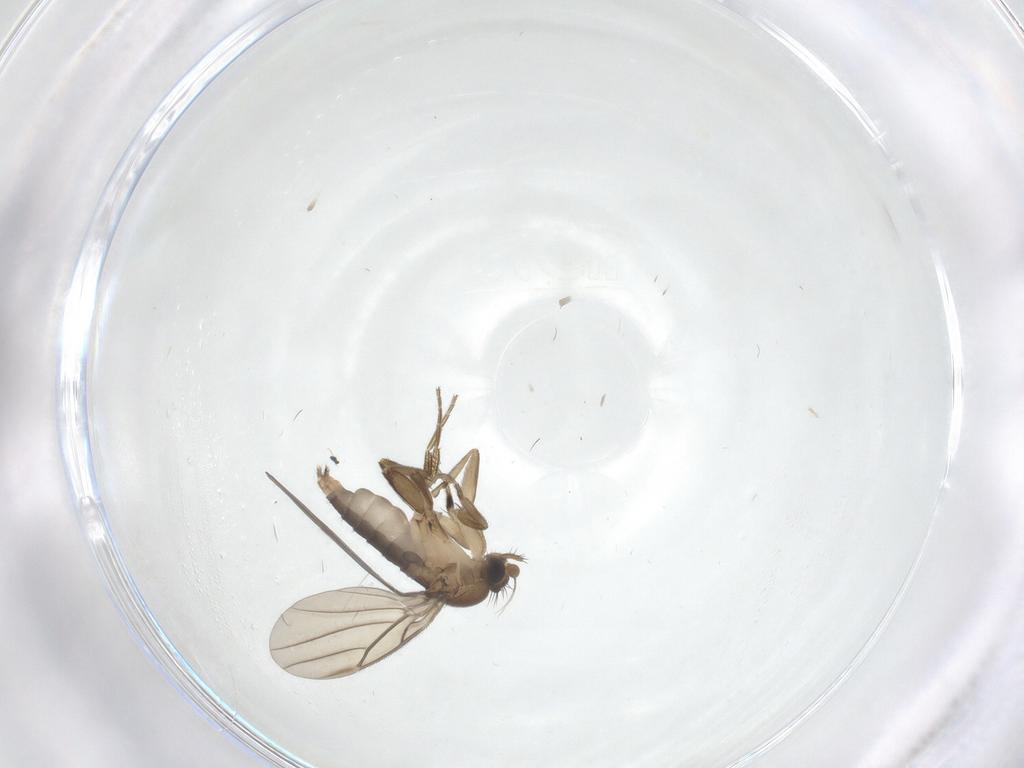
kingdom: Animalia
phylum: Arthropoda
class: Insecta
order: Diptera
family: Phoridae
